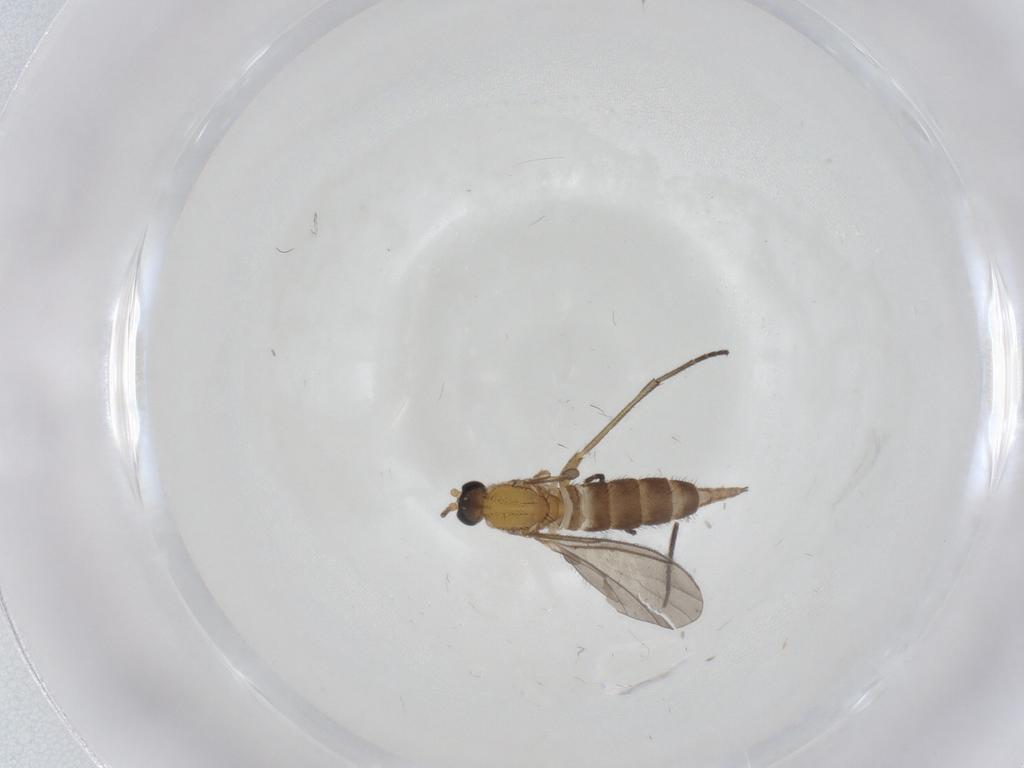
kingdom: Animalia
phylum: Arthropoda
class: Insecta
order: Diptera
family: Sciaridae
